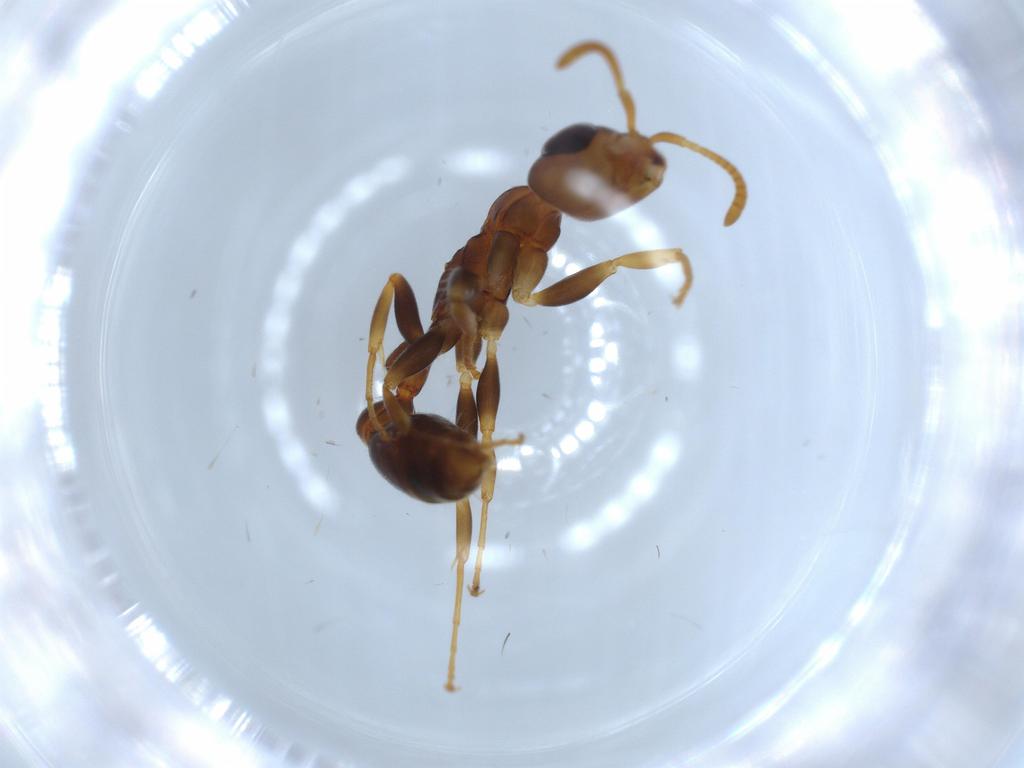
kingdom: Animalia
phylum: Arthropoda
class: Insecta
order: Hymenoptera
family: Formicidae
